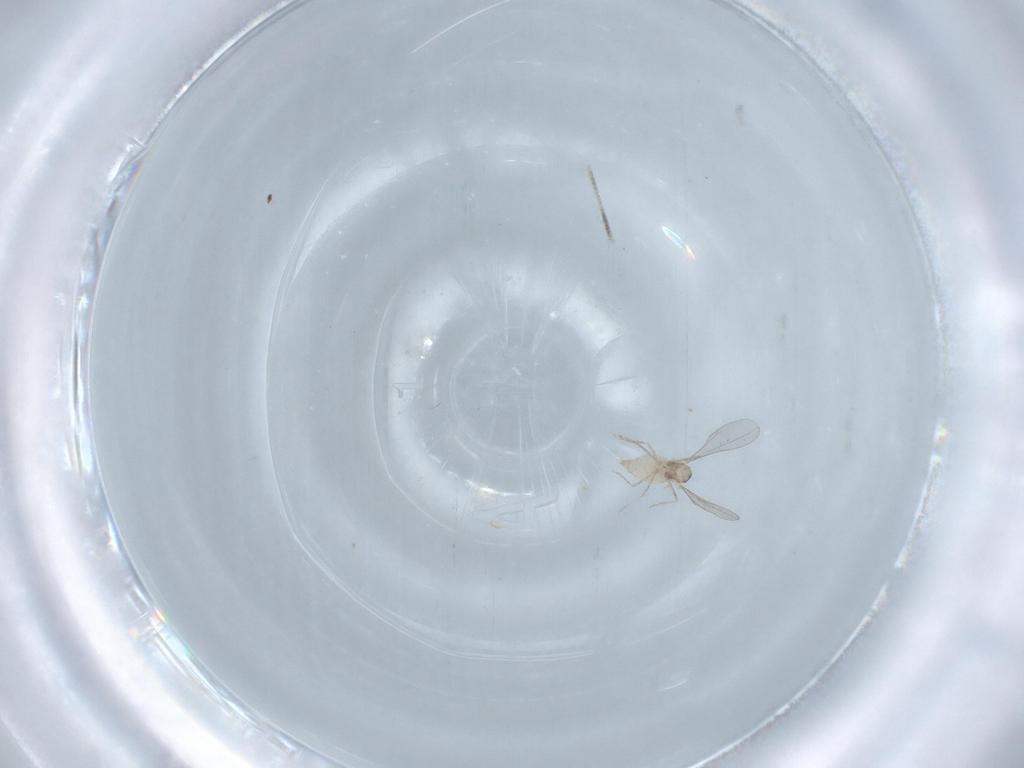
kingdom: Animalia
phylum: Arthropoda
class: Insecta
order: Diptera
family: Cecidomyiidae
